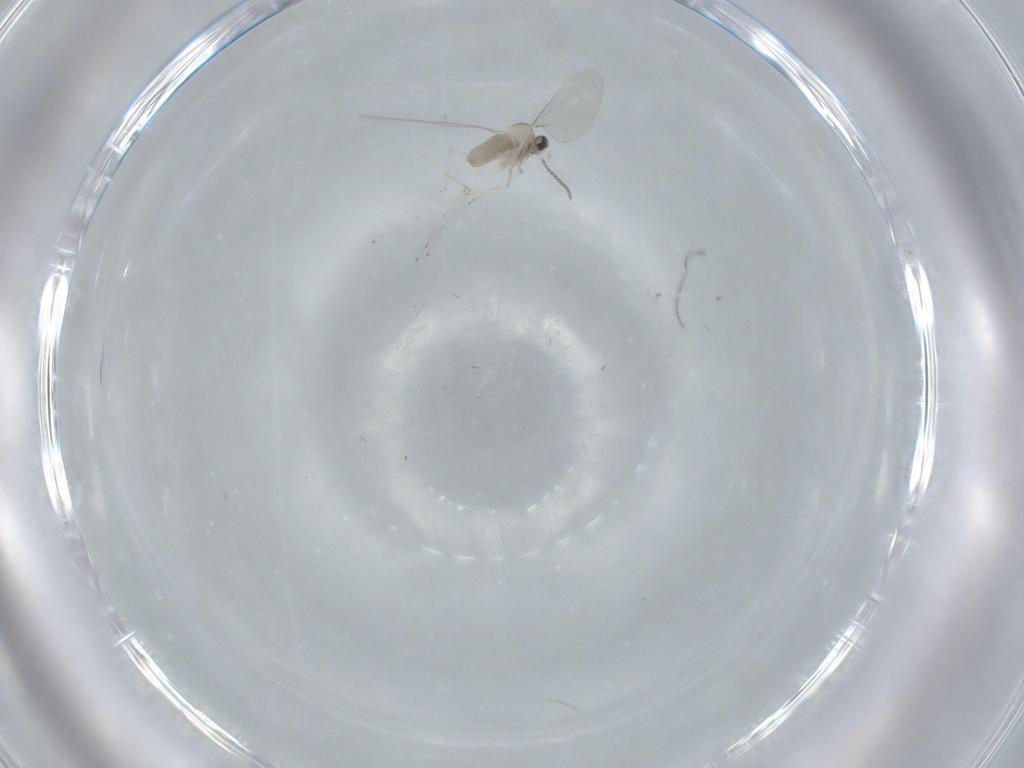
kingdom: Animalia
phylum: Arthropoda
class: Insecta
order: Diptera
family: Cecidomyiidae
